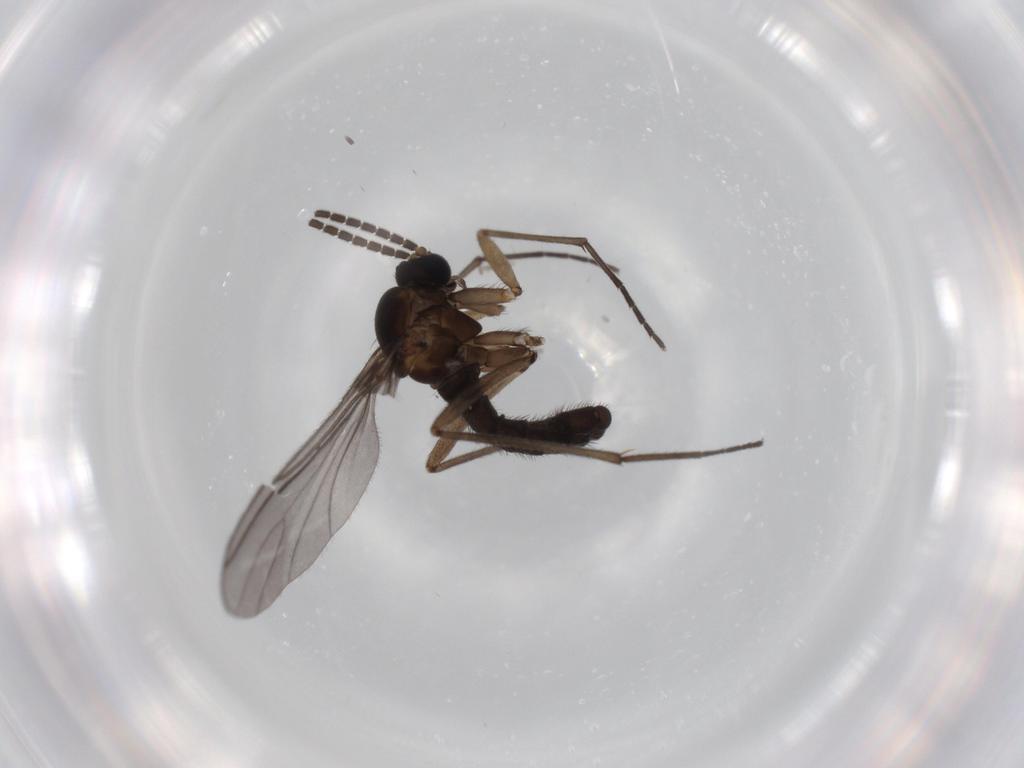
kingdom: Animalia
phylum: Arthropoda
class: Insecta
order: Diptera
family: Sciaridae
